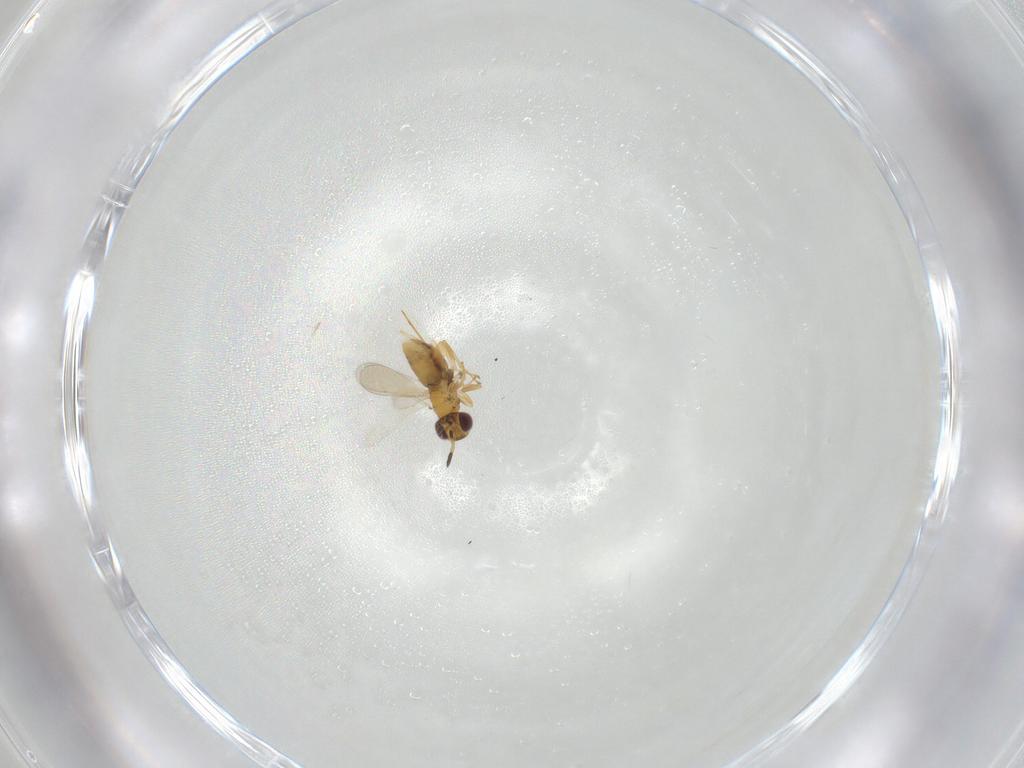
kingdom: Animalia
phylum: Arthropoda
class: Insecta
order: Hymenoptera
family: Aphelinidae
